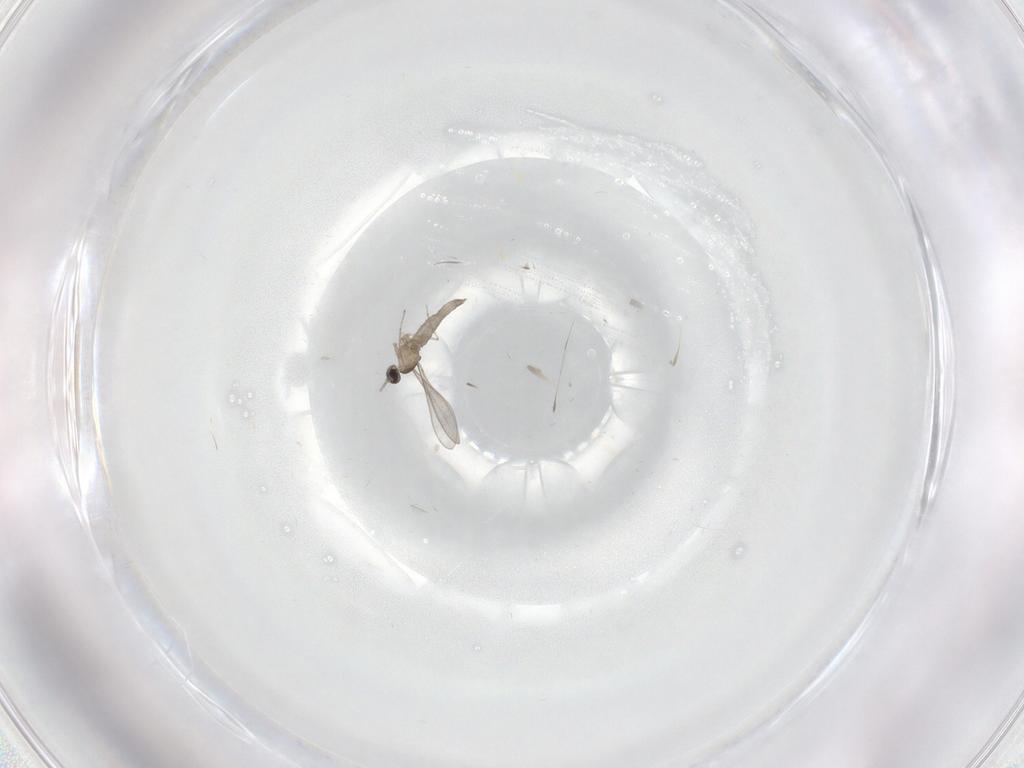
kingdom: Animalia
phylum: Arthropoda
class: Insecta
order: Diptera
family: Cecidomyiidae
